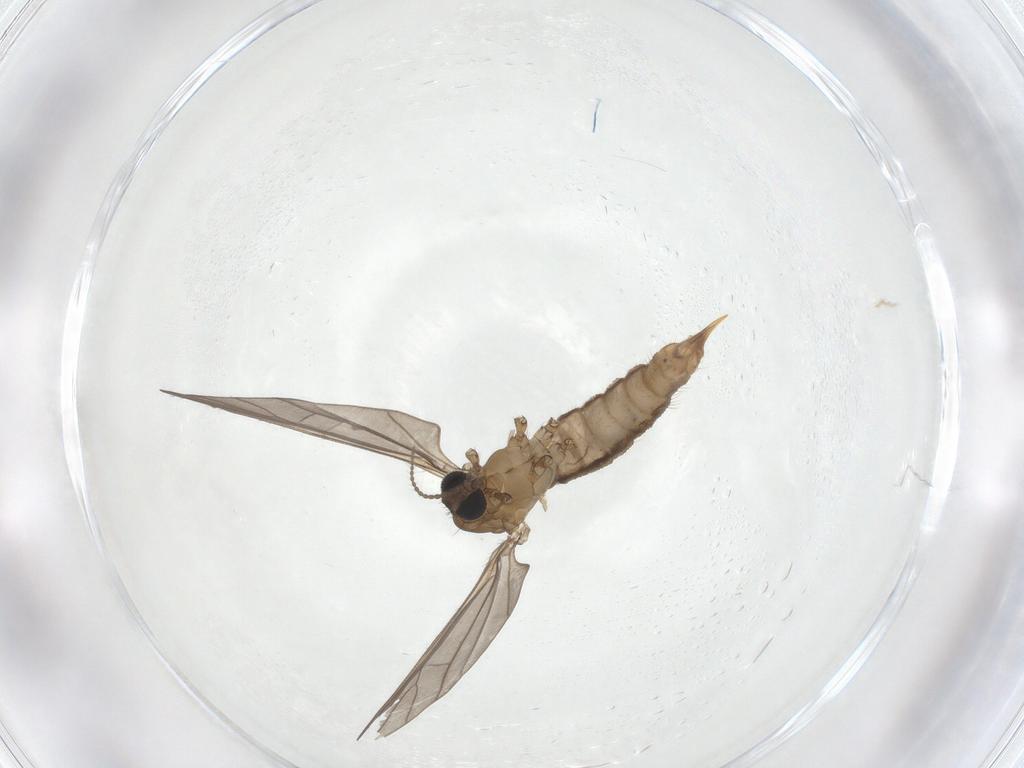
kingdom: Animalia
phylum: Arthropoda
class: Insecta
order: Diptera
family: Limoniidae
